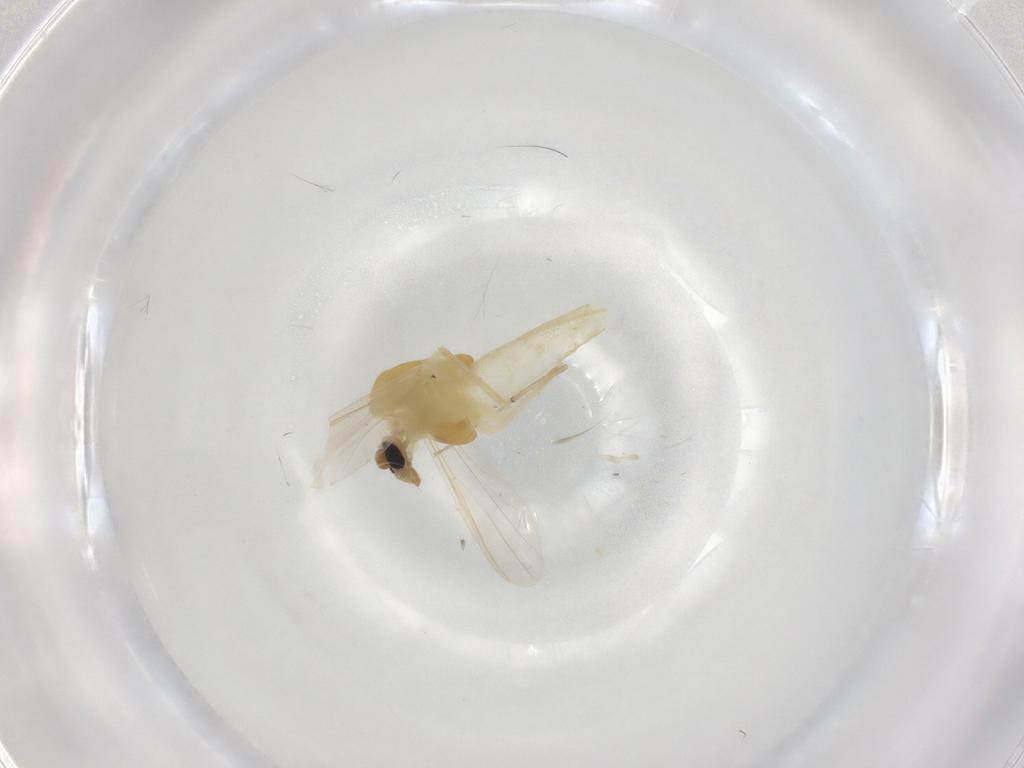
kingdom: Animalia
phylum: Arthropoda
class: Insecta
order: Diptera
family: Chironomidae
